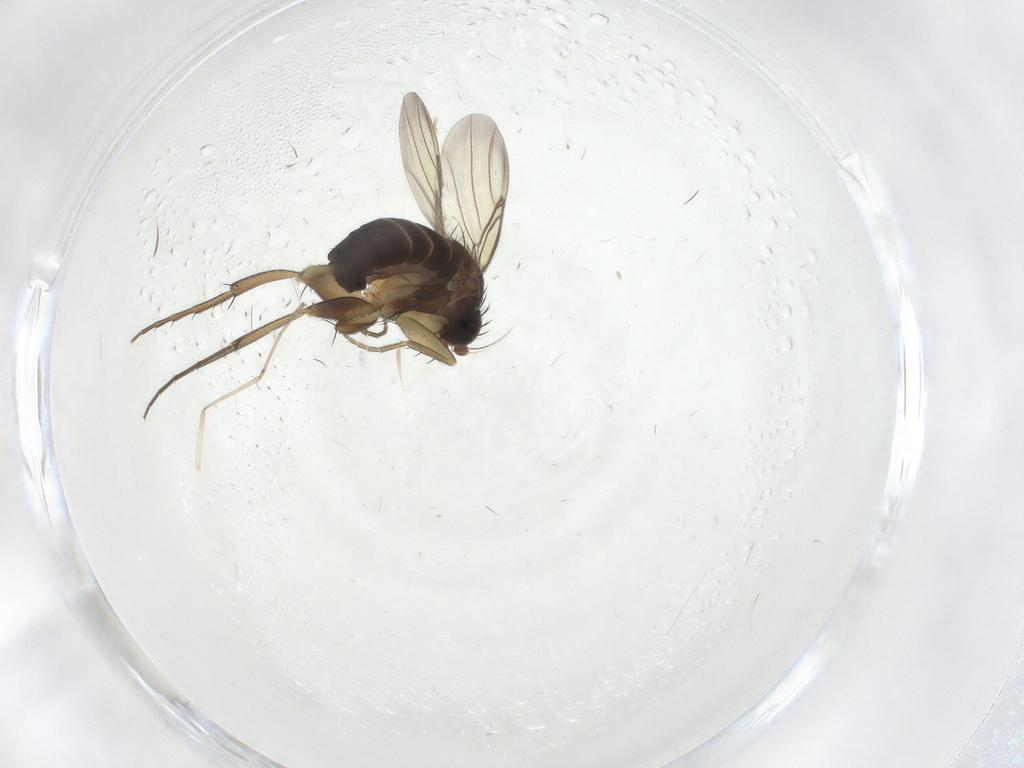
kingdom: Animalia
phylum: Arthropoda
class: Insecta
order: Diptera
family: Phoridae
